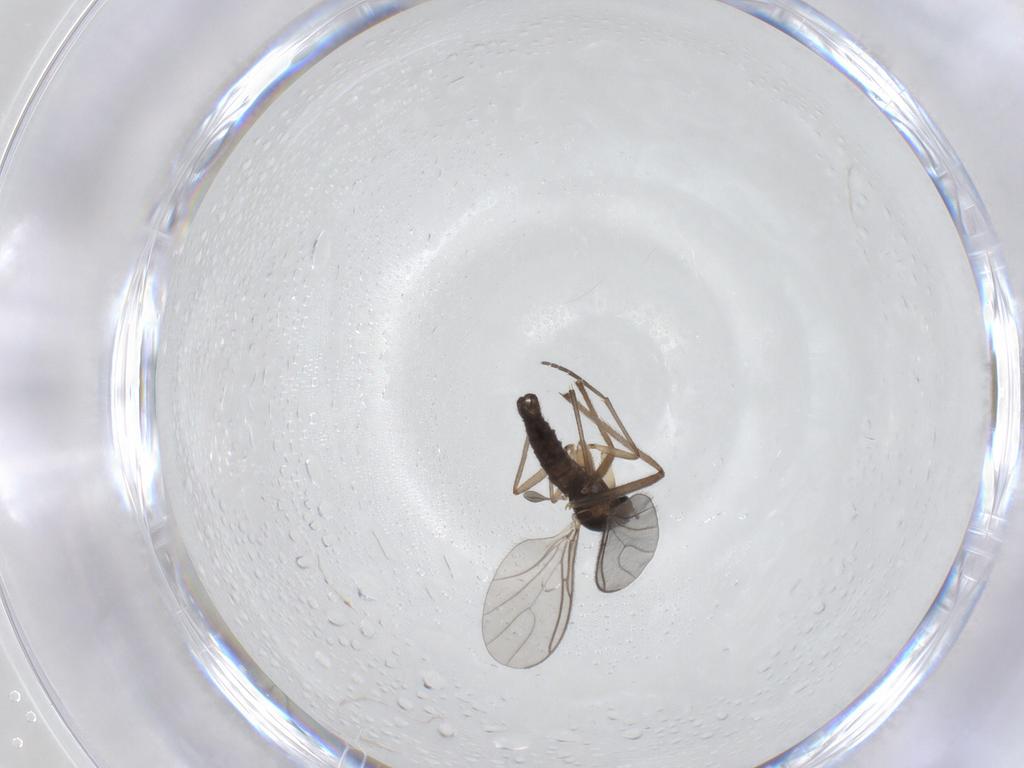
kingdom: Animalia
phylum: Arthropoda
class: Insecta
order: Diptera
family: Sciaridae
